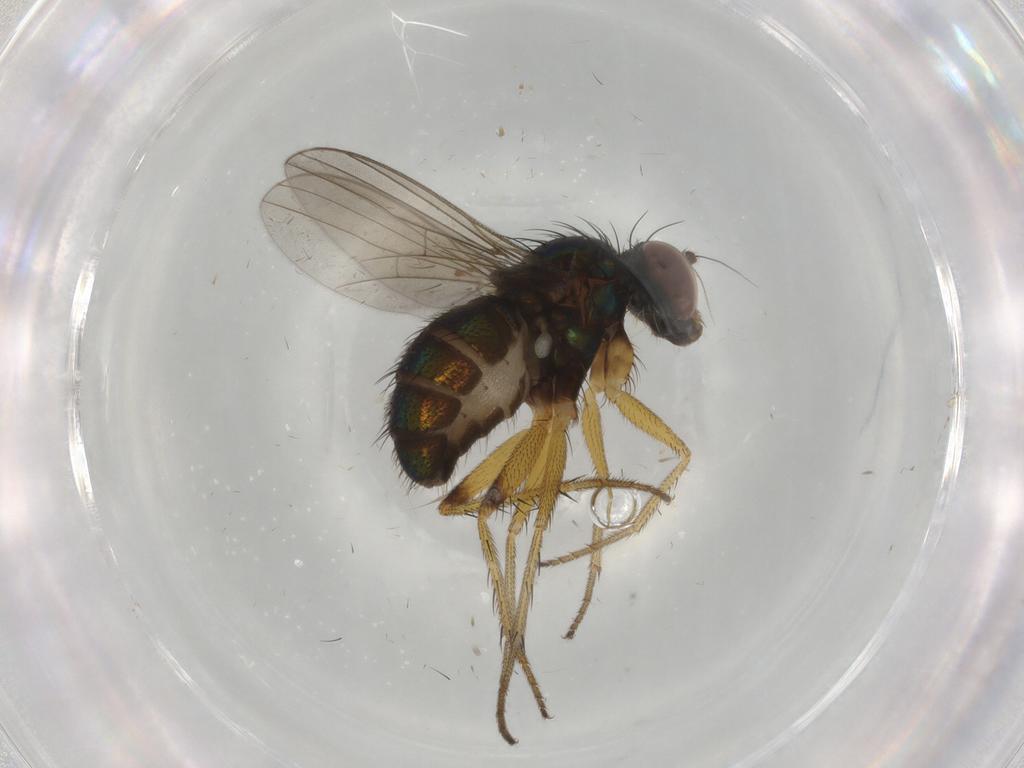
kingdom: Animalia
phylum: Arthropoda
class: Insecta
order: Diptera
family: Dolichopodidae
